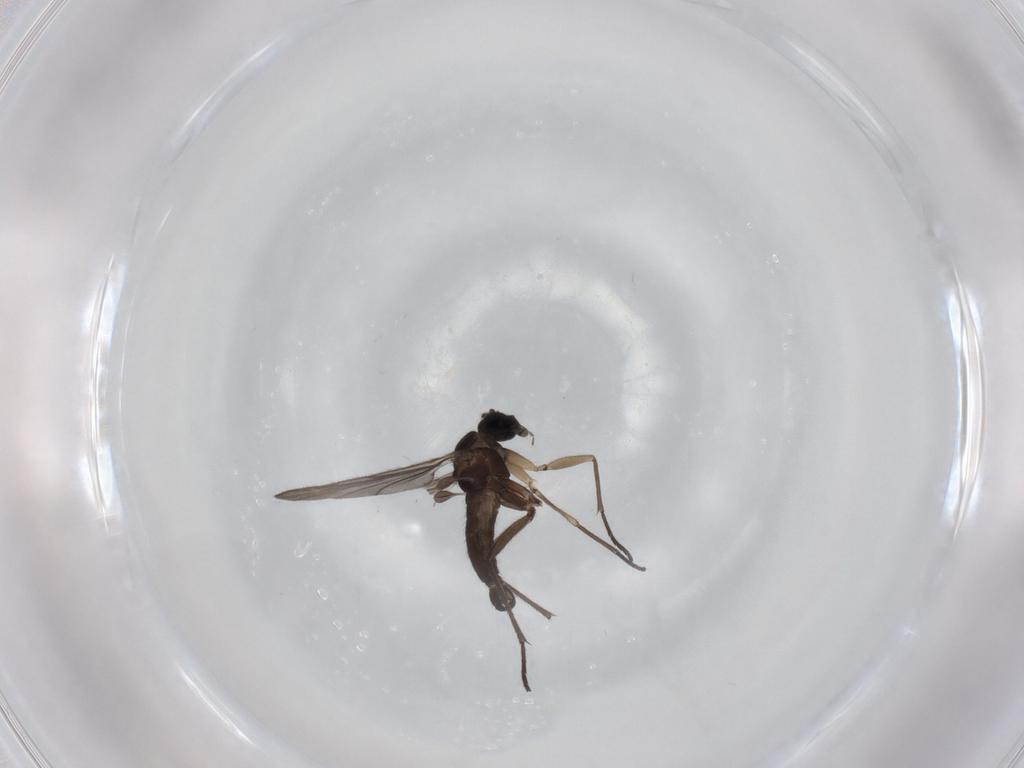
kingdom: Animalia
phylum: Arthropoda
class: Insecta
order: Diptera
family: Sciaridae
